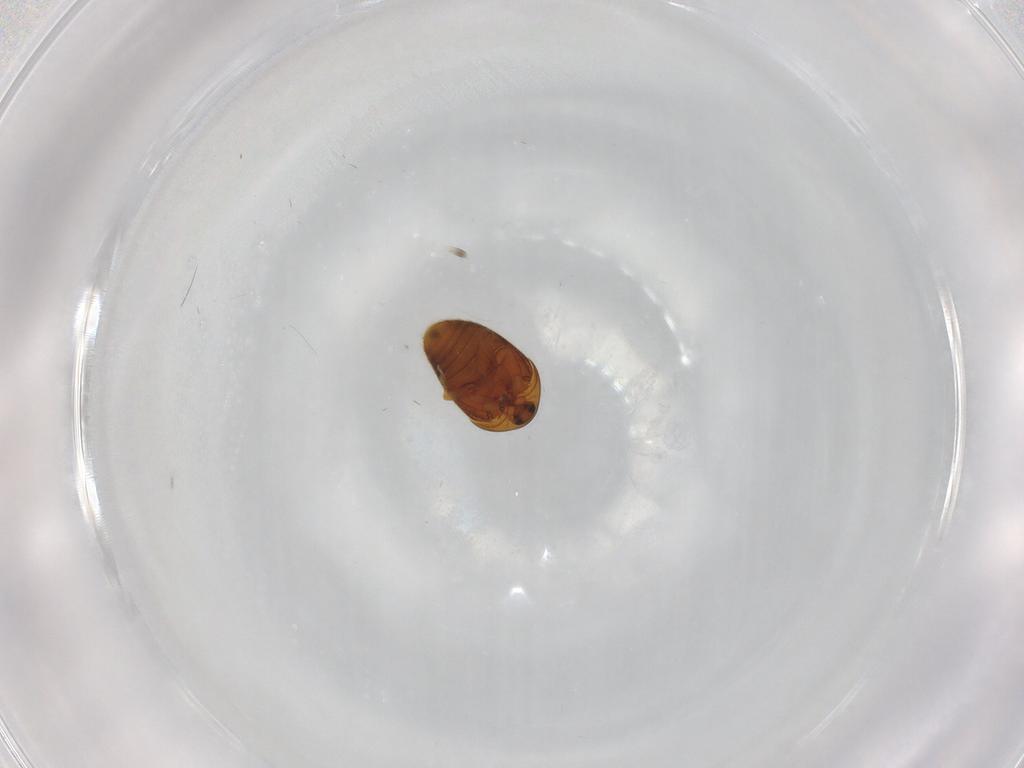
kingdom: Animalia
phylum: Arthropoda
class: Insecta
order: Coleoptera
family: Corylophidae
